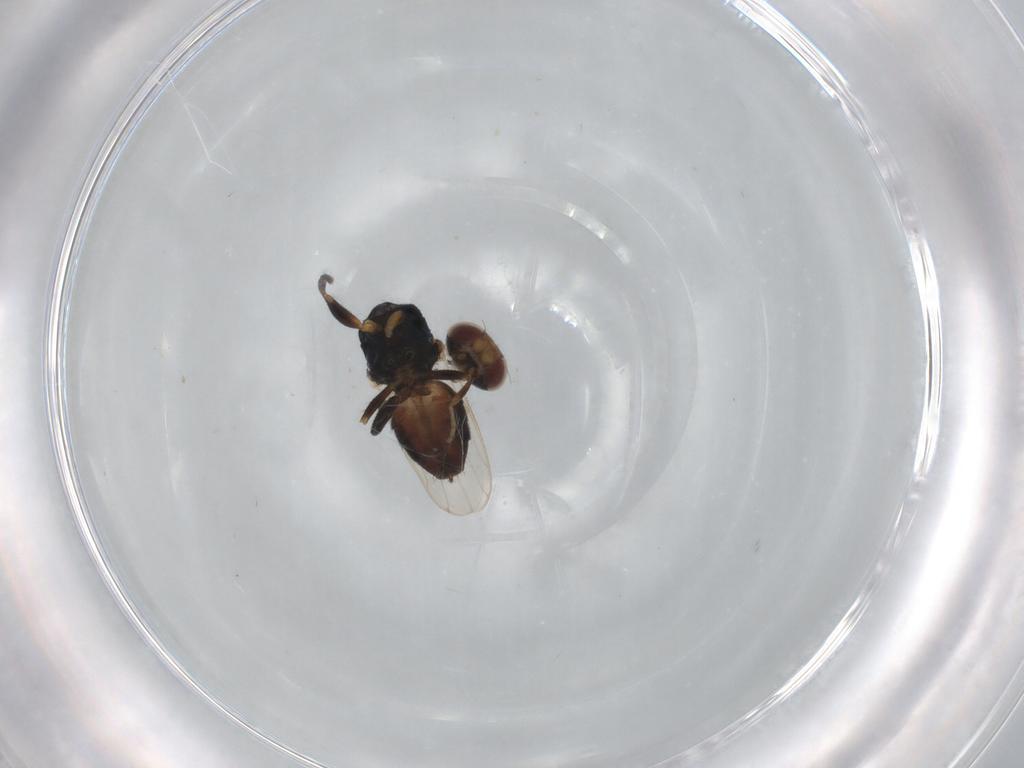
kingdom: Animalia
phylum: Arthropoda
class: Insecta
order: Diptera
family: Chloropidae
